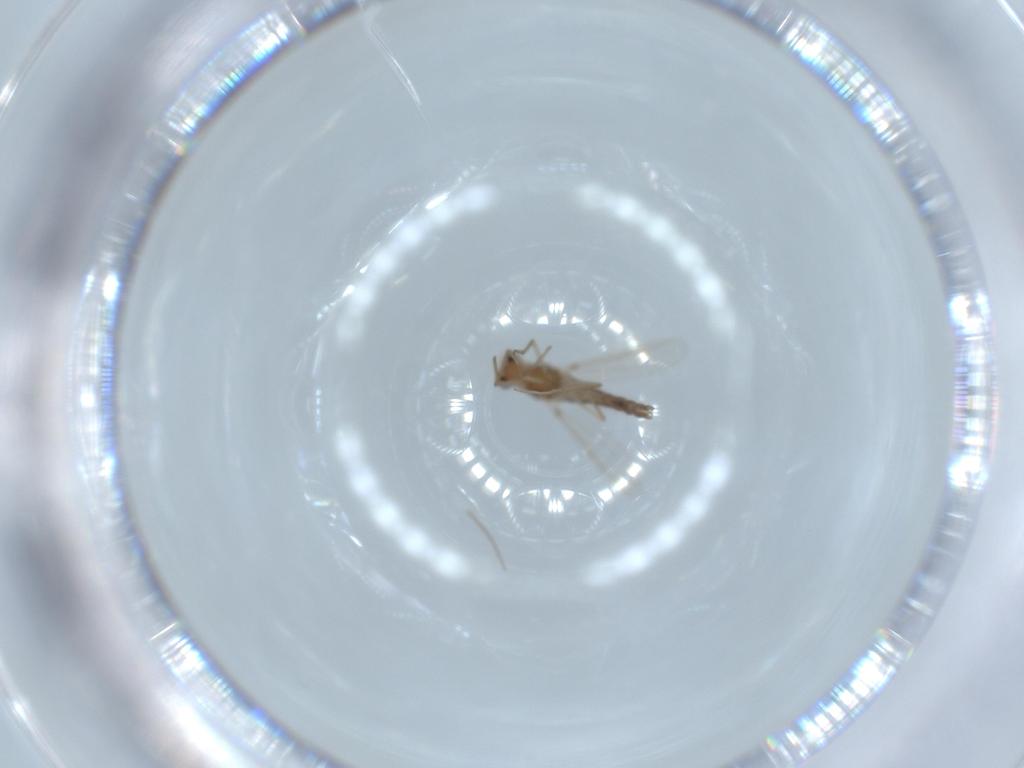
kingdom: Animalia
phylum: Arthropoda
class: Insecta
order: Diptera
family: Chironomidae
